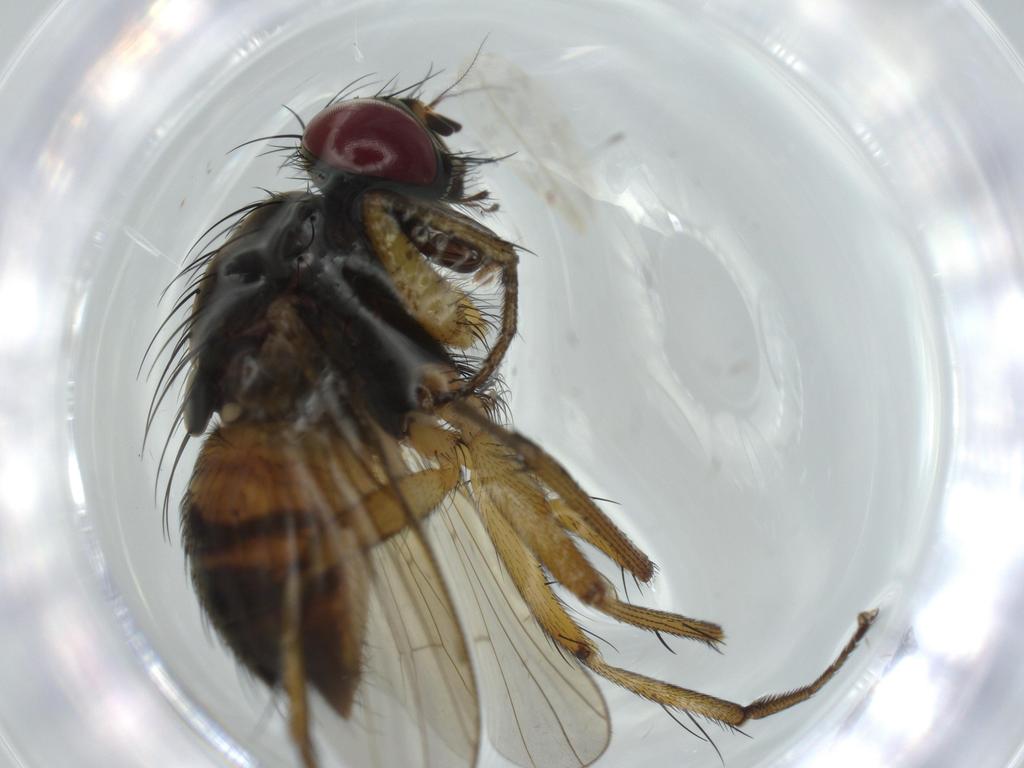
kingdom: Animalia
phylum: Arthropoda
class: Insecta
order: Diptera
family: Muscidae
